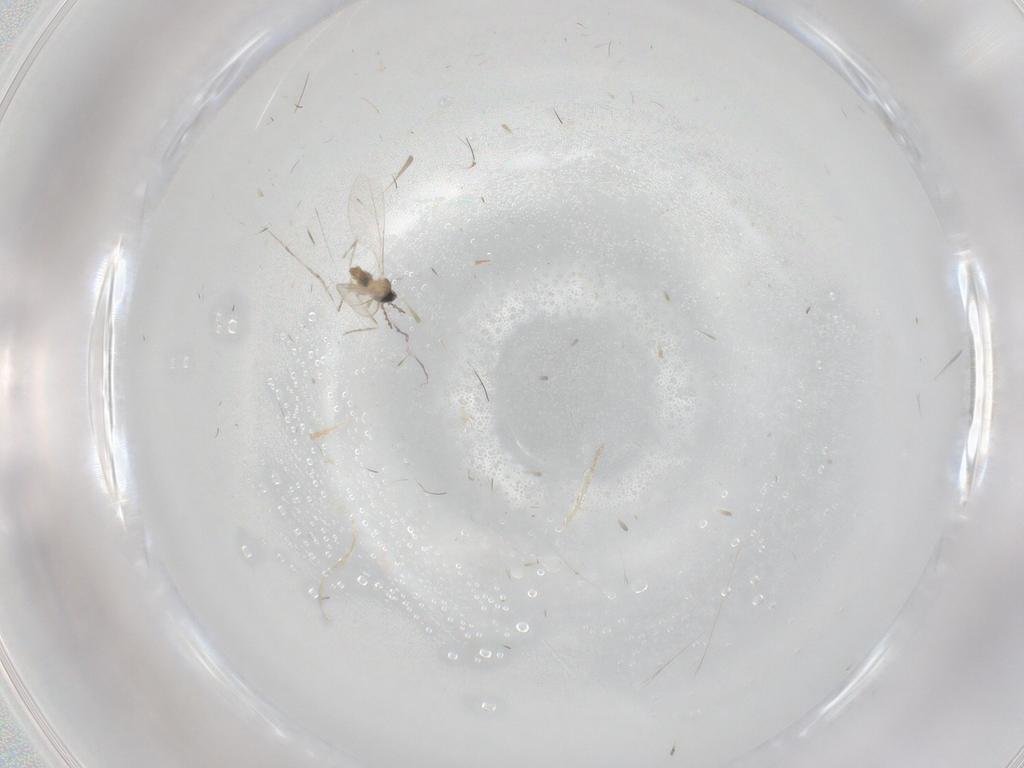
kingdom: Animalia
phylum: Arthropoda
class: Insecta
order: Diptera
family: Cecidomyiidae
